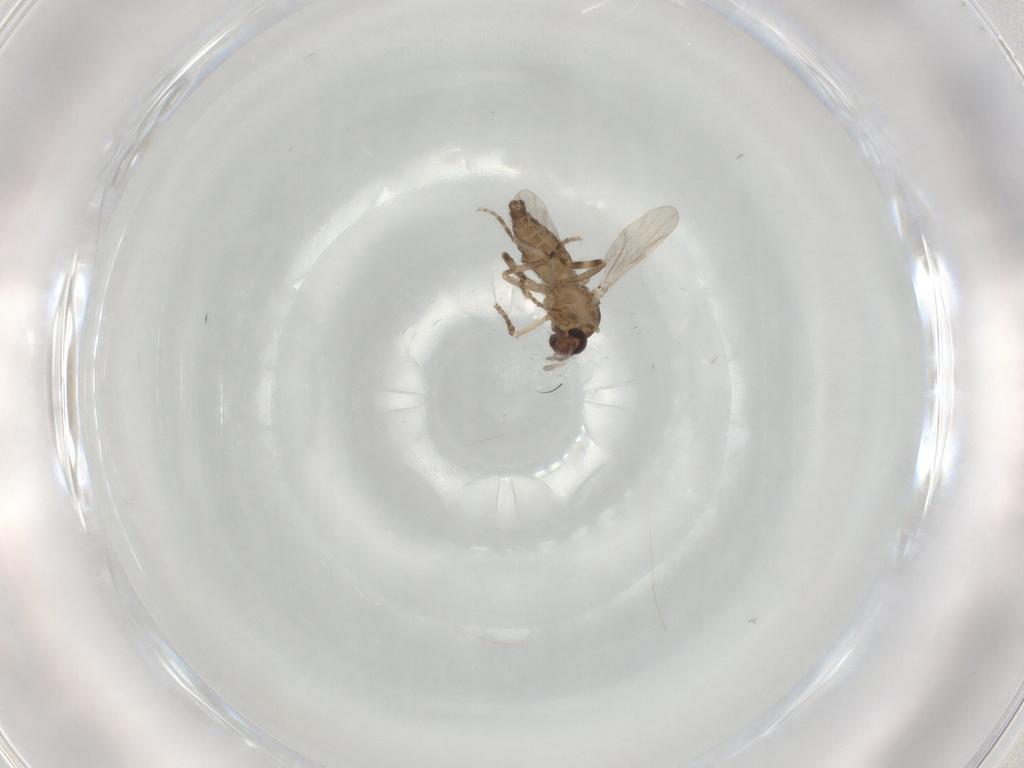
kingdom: Animalia
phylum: Arthropoda
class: Insecta
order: Diptera
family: Ceratopogonidae
